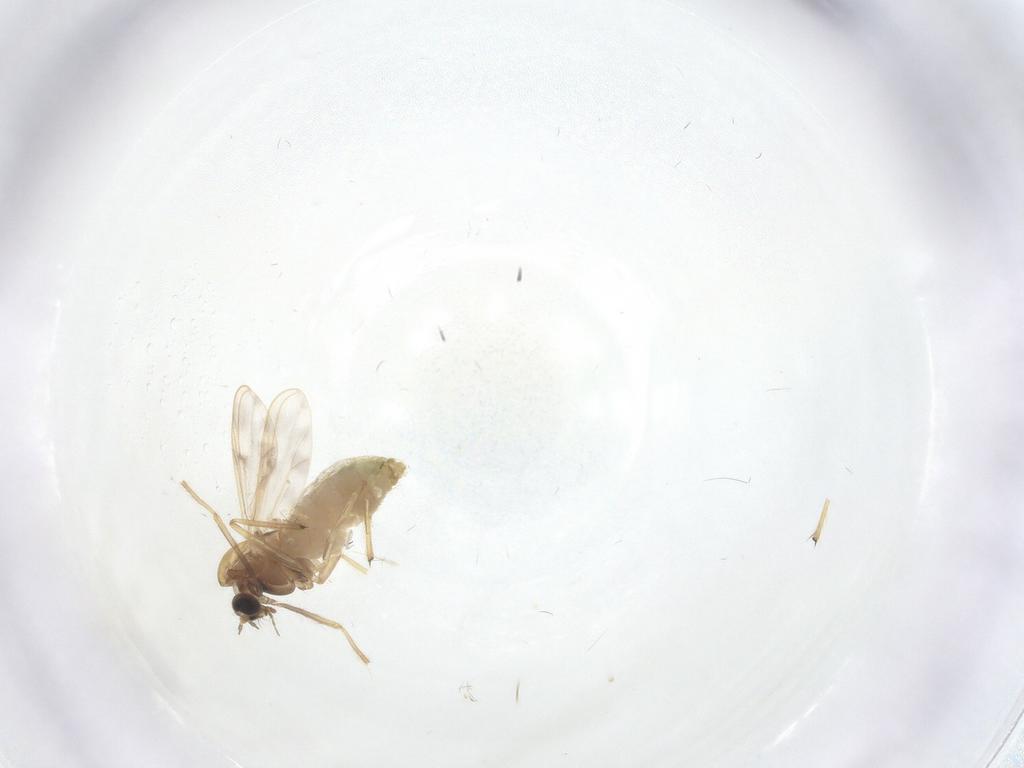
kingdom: Animalia
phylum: Arthropoda
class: Insecta
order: Diptera
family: Chironomidae
